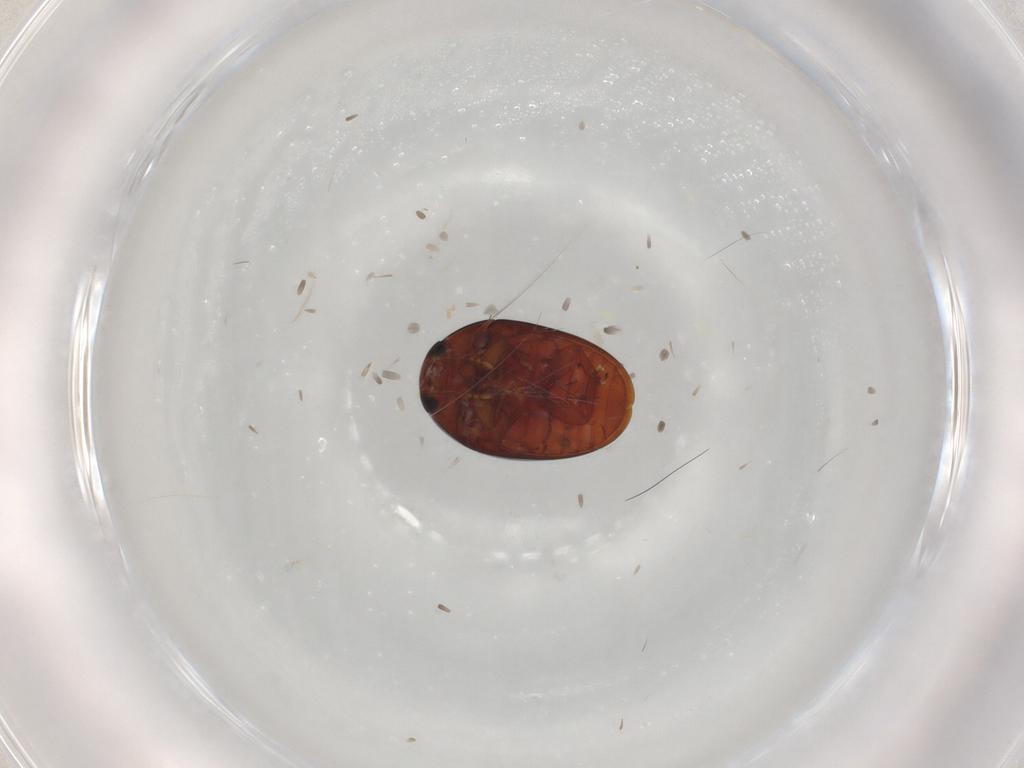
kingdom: Animalia
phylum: Arthropoda
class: Insecta
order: Coleoptera
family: Phalacridae
